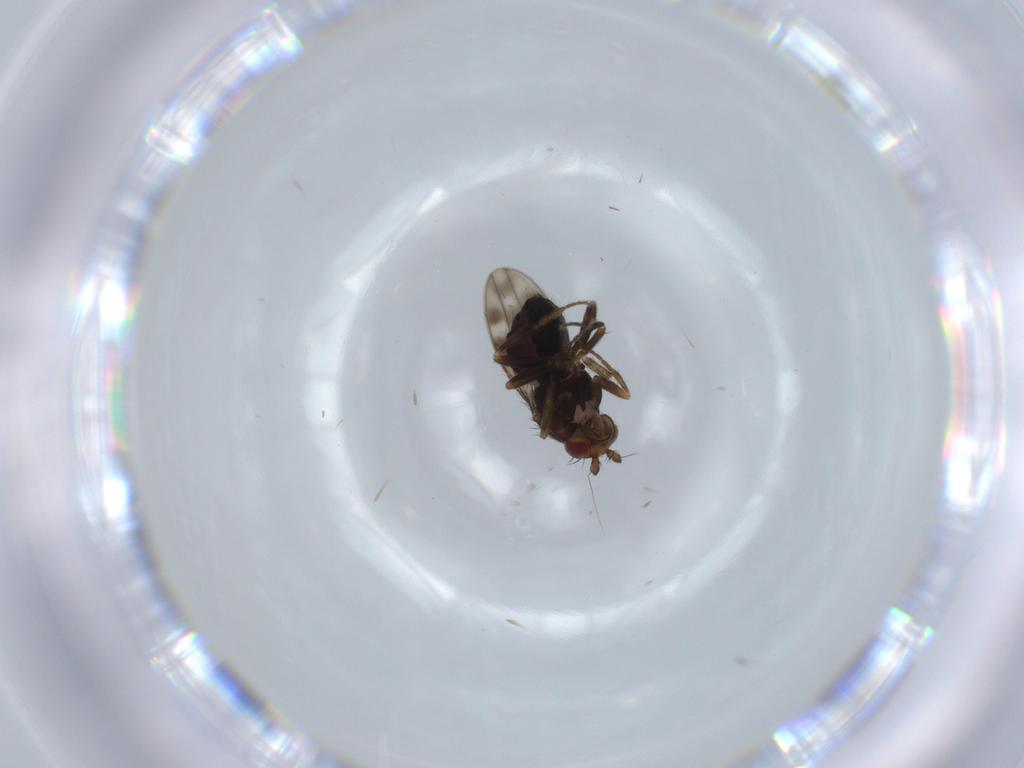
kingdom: Animalia
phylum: Arthropoda
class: Insecta
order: Diptera
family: Sphaeroceridae
